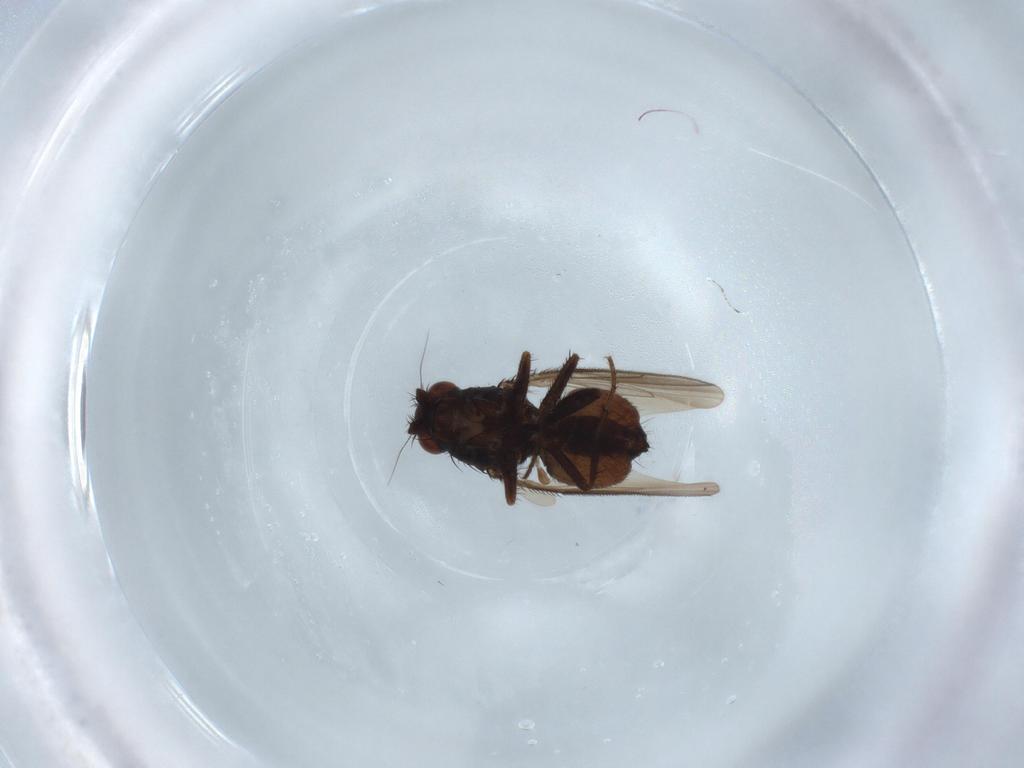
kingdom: Animalia
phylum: Arthropoda
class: Insecta
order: Diptera
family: Sphaeroceridae
